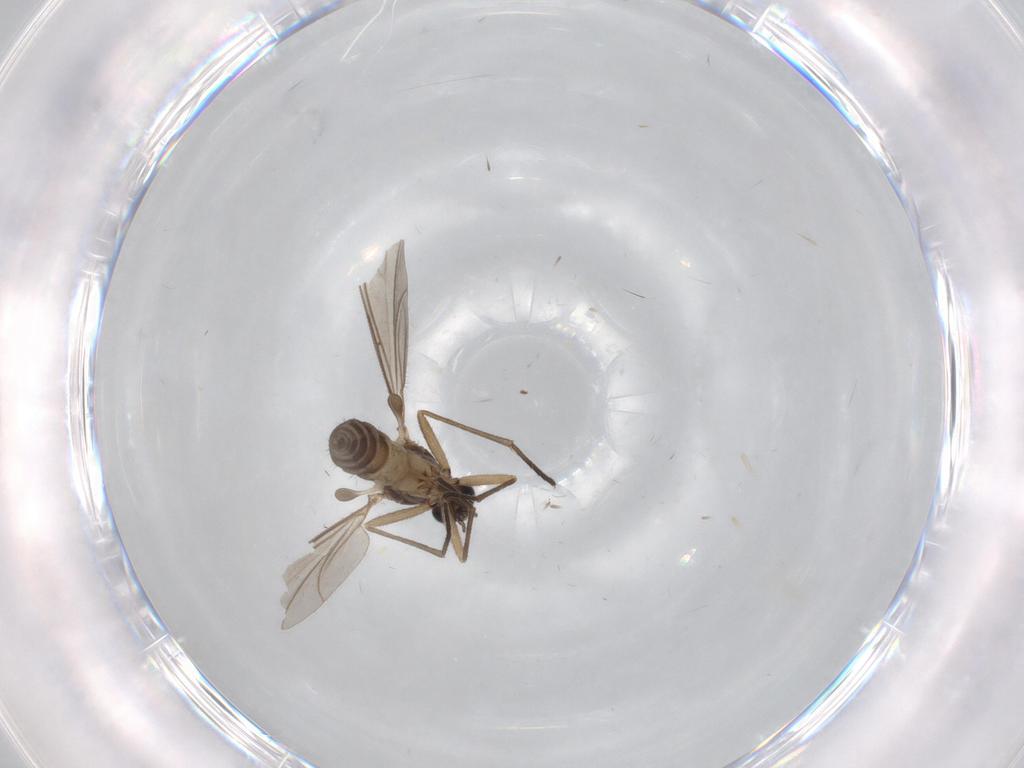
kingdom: Animalia
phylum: Arthropoda
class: Insecta
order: Diptera
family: Sciaridae
